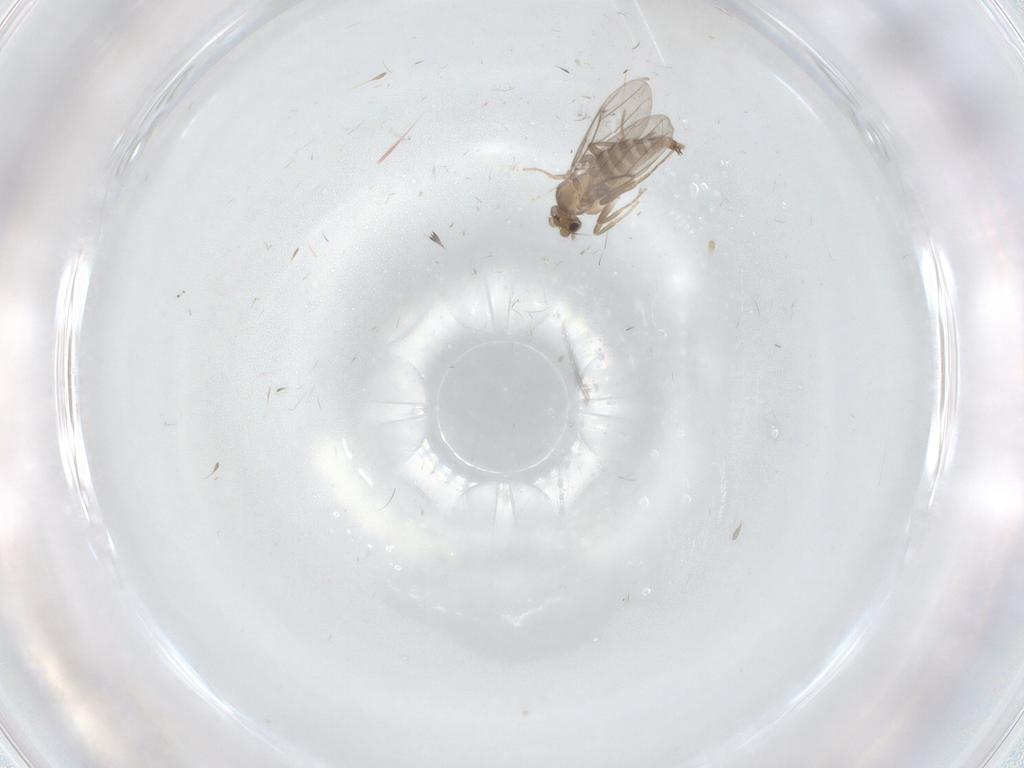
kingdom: Animalia
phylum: Arthropoda
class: Insecta
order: Diptera
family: Cecidomyiidae
